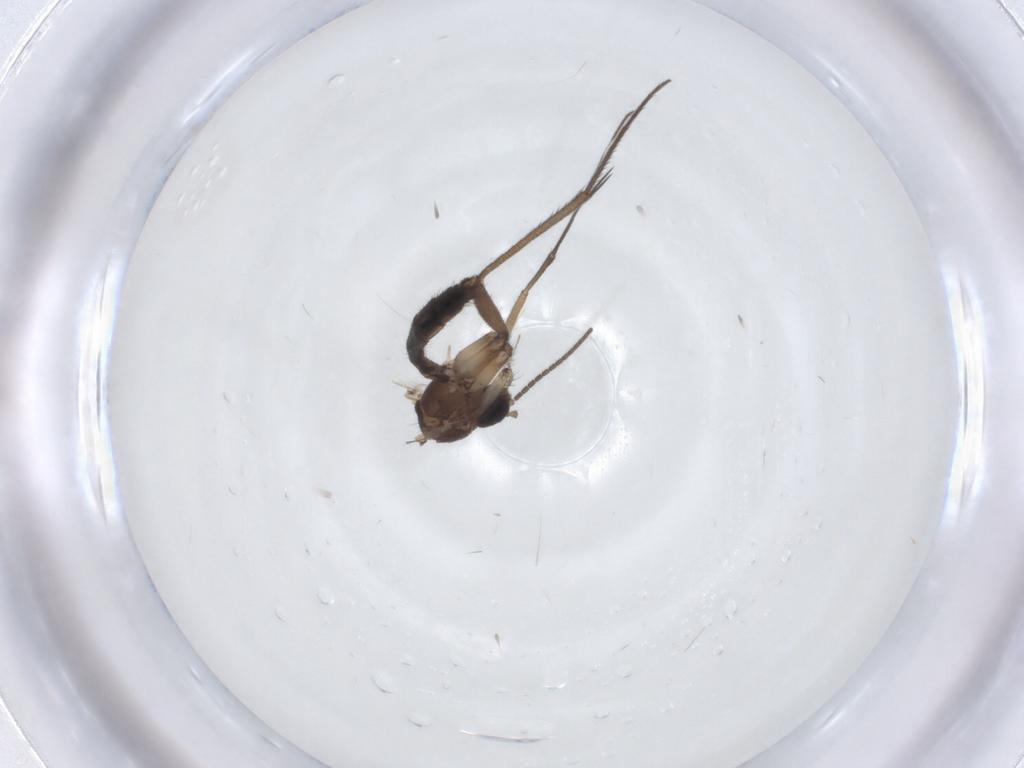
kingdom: Animalia
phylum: Arthropoda
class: Insecta
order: Diptera
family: Mycetophilidae
